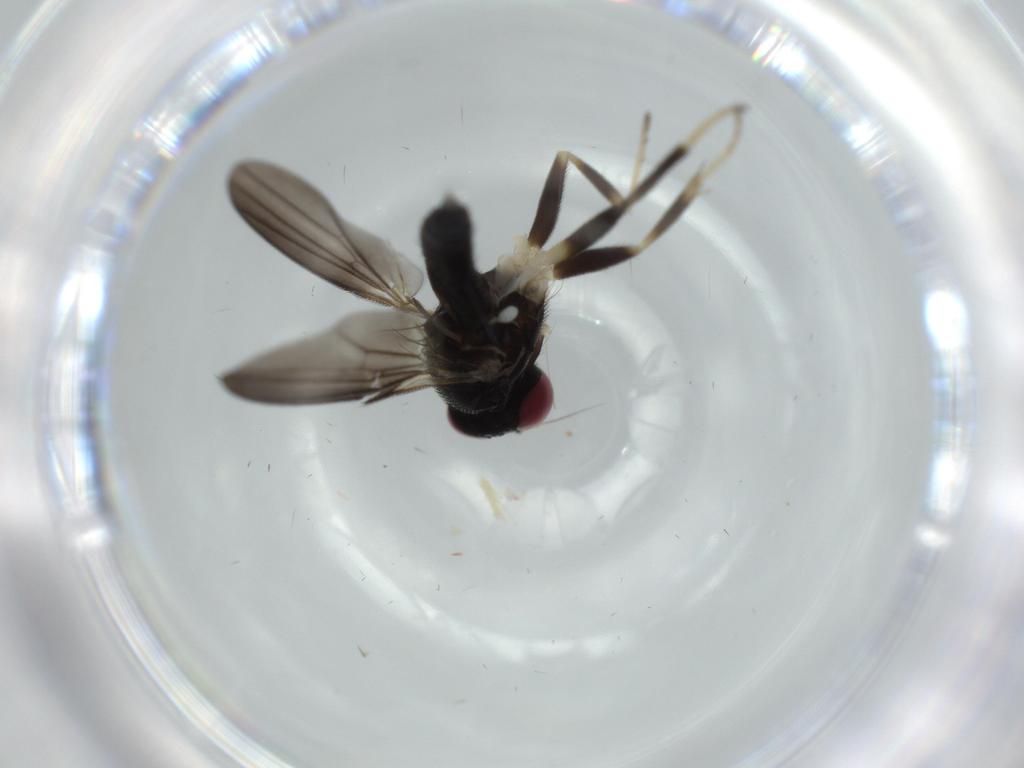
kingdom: Animalia
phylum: Arthropoda
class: Insecta
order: Diptera
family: Clusiidae
